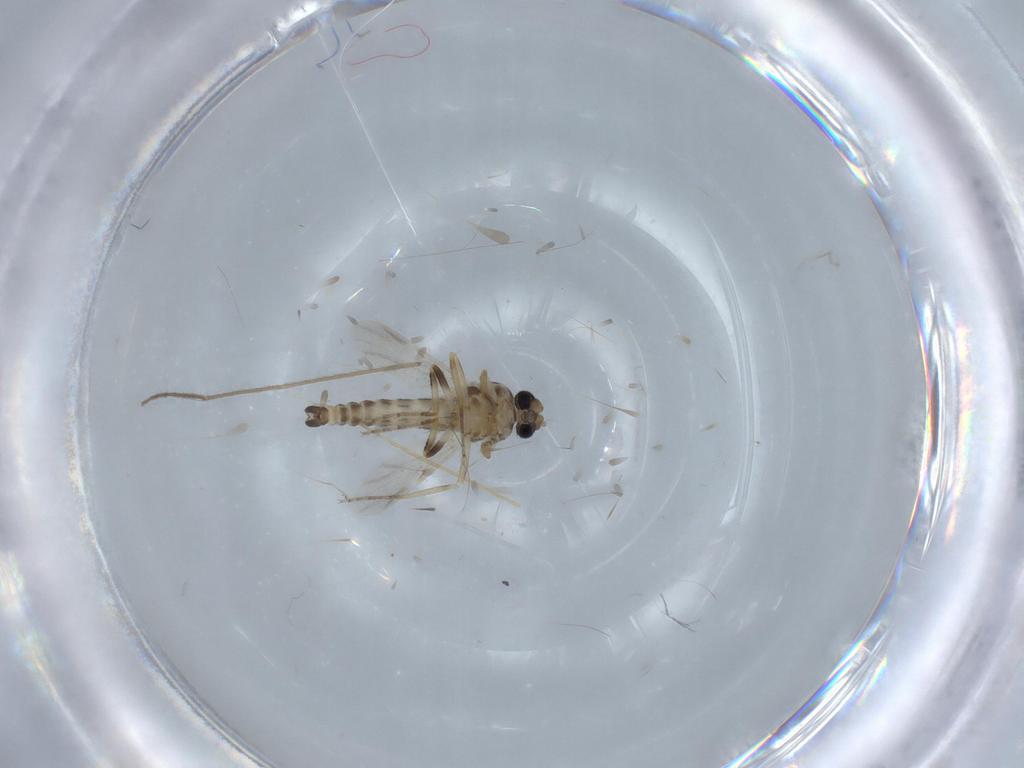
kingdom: Animalia
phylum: Arthropoda
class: Insecta
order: Diptera
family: Ceratopogonidae
